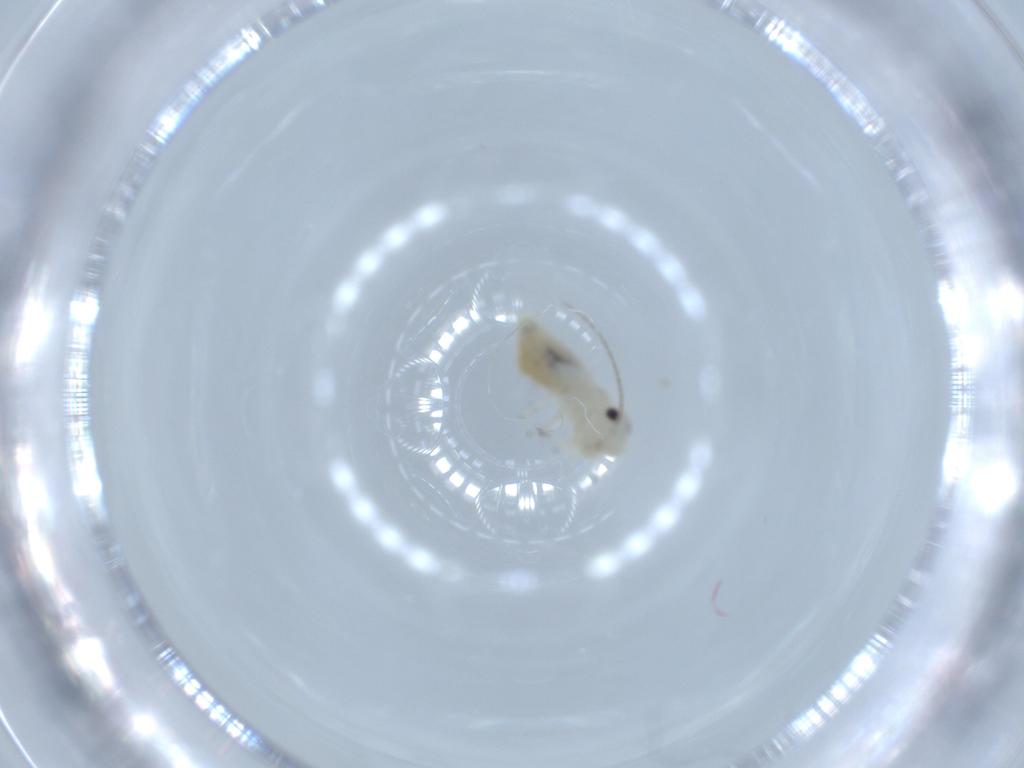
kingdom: Animalia
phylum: Arthropoda
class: Insecta
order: Psocodea
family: Caeciliusidae
